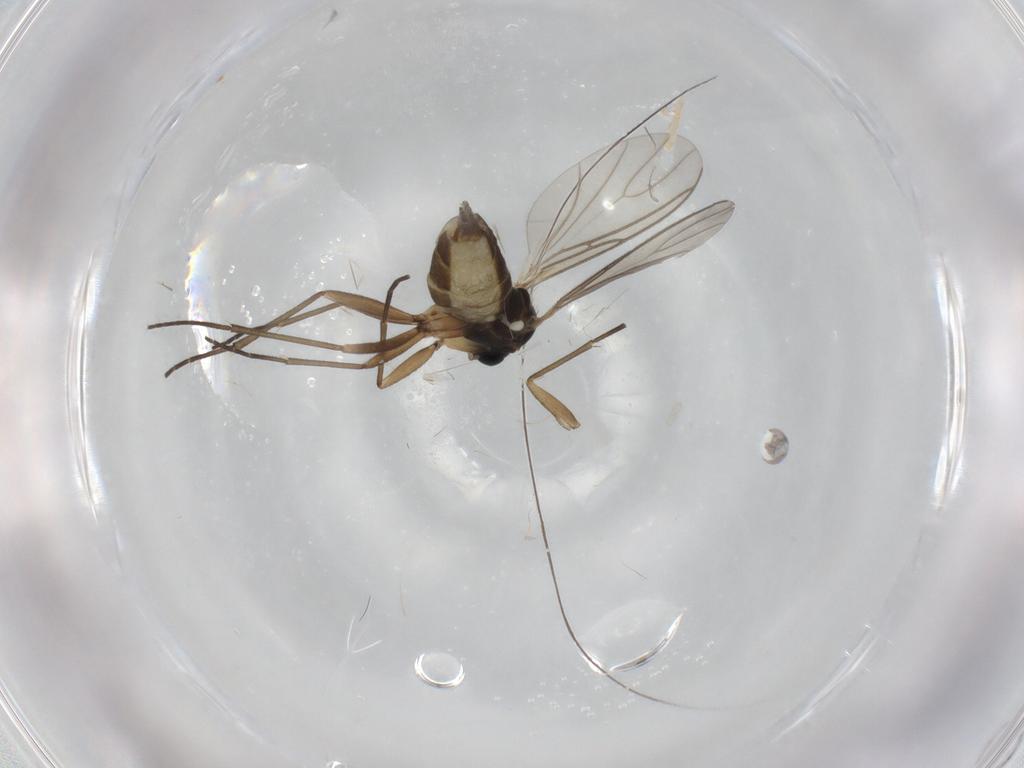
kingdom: Animalia
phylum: Arthropoda
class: Insecta
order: Diptera
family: Sciaridae
